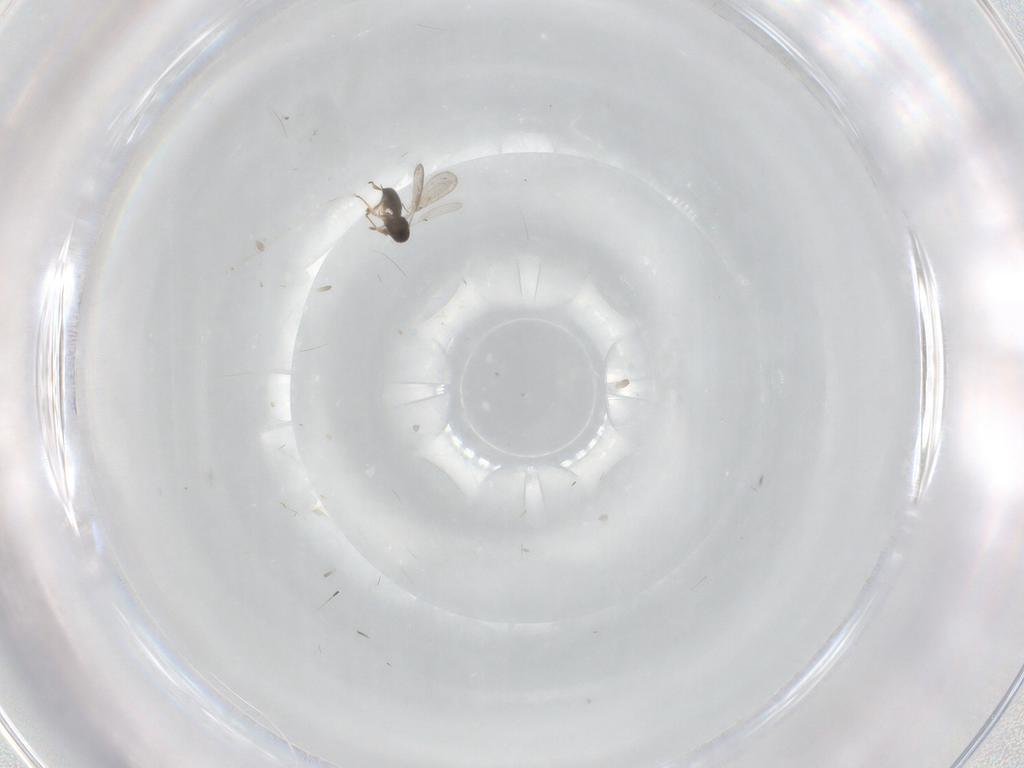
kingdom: Animalia
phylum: Arthropoda
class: Insecta
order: Hymenoptera
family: Scelionidae
